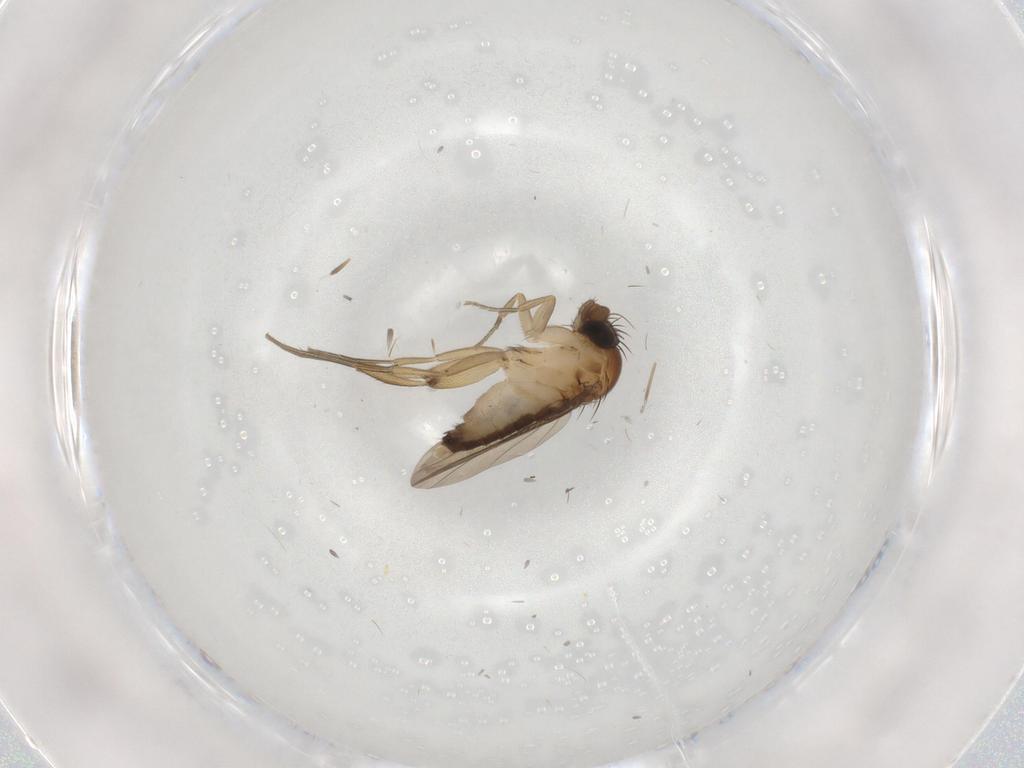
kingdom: Animalia
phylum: Arthropoda
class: Insecta
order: Diptera
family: Phoridae
